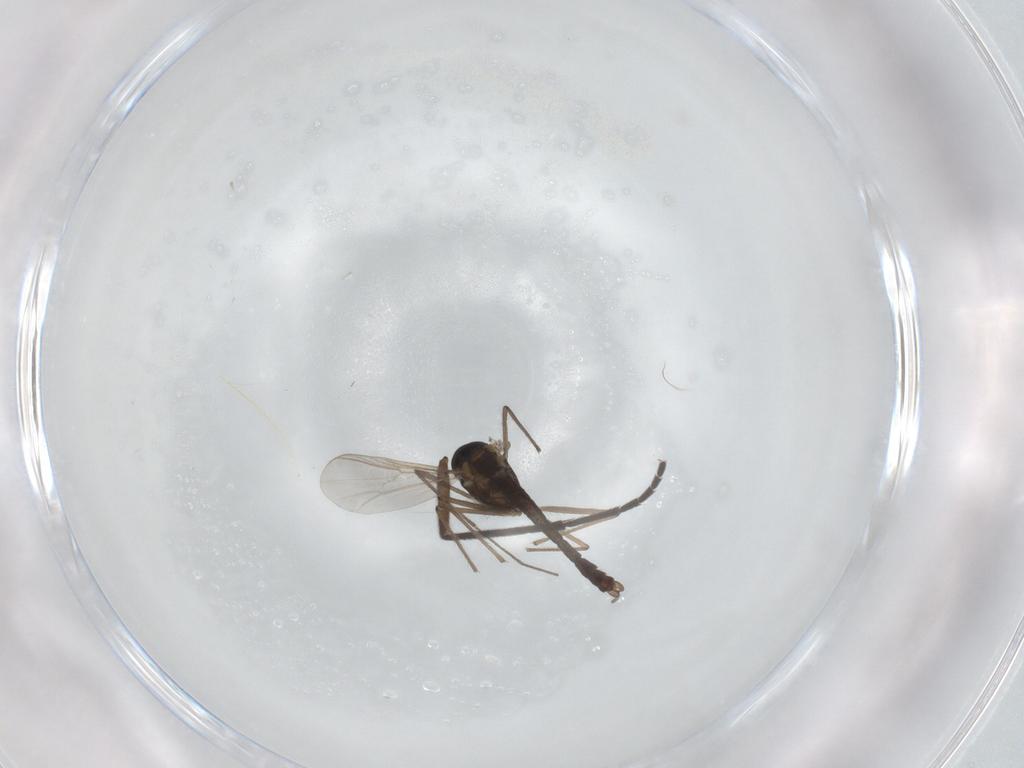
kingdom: Animalia
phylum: Arthropoda
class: Insecta
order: Diptera
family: Chironomidae
